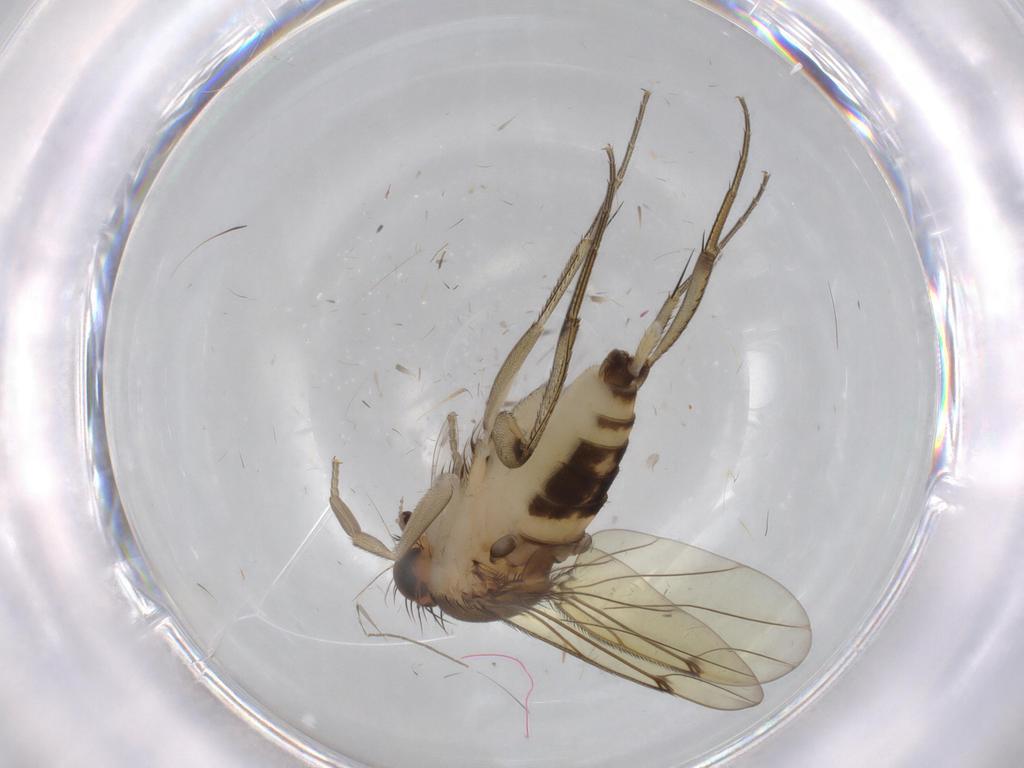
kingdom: Animalia
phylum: Arthropoda
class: Insecta
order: Diptera
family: Phoridae
